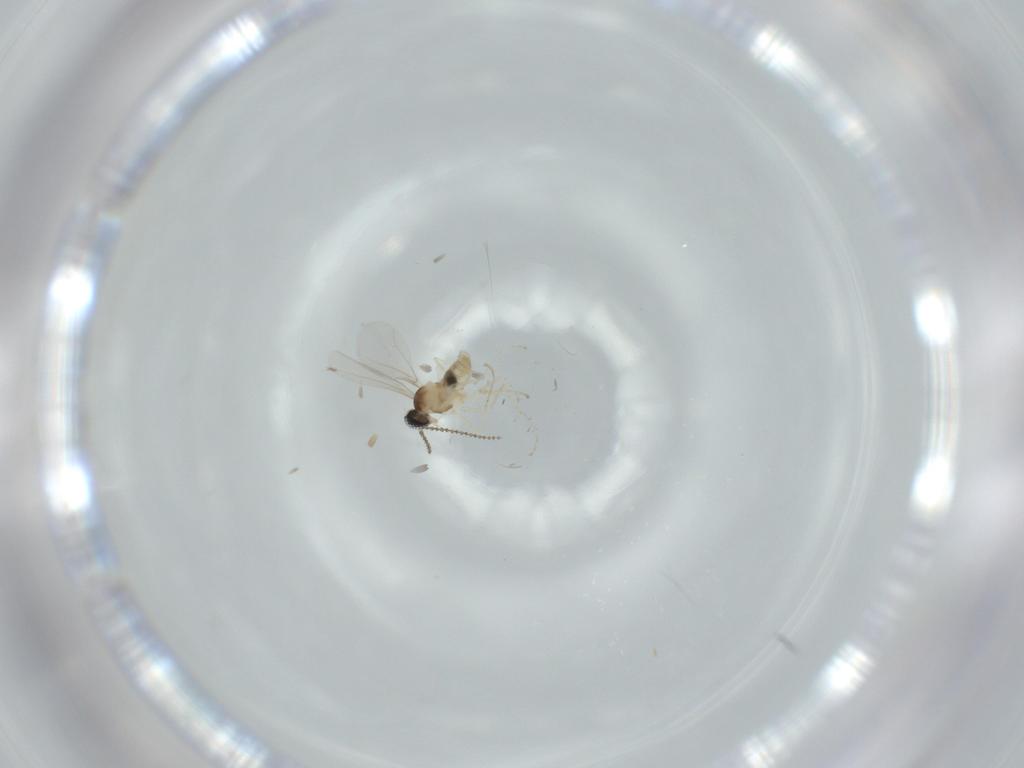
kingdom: Animalia
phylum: Arthropoda
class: Insecta
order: Diptera
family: Cecidomyiidae
